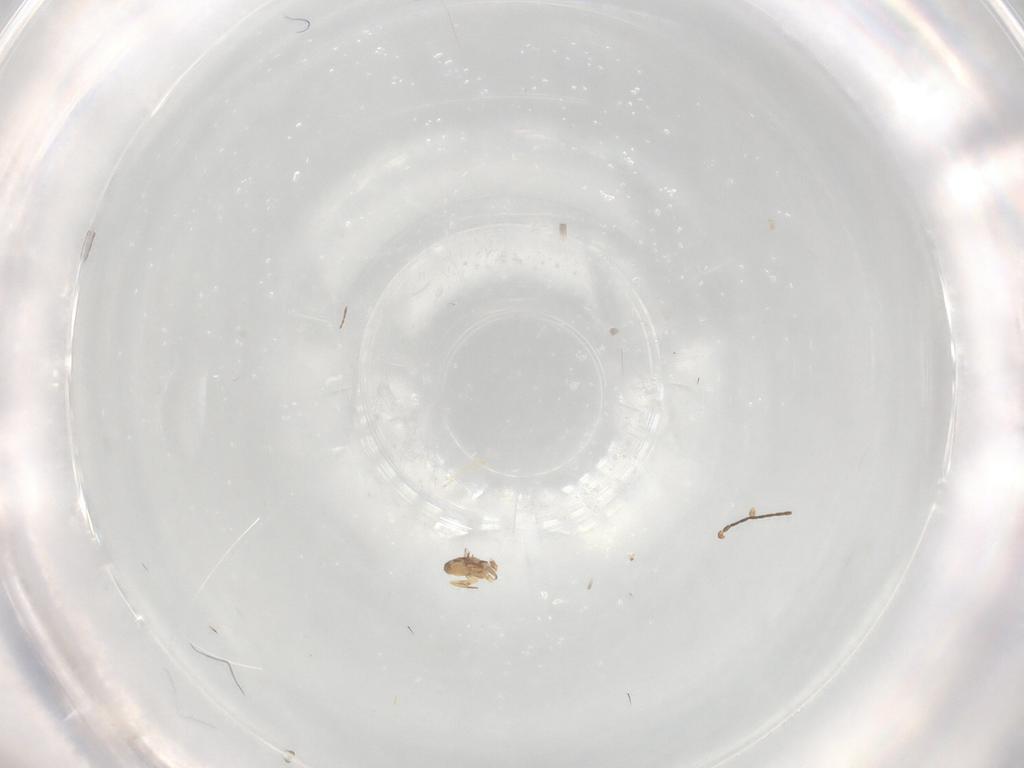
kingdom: Animalia
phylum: Arthropoda
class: Insecta
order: Diptera
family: Glossinidae
